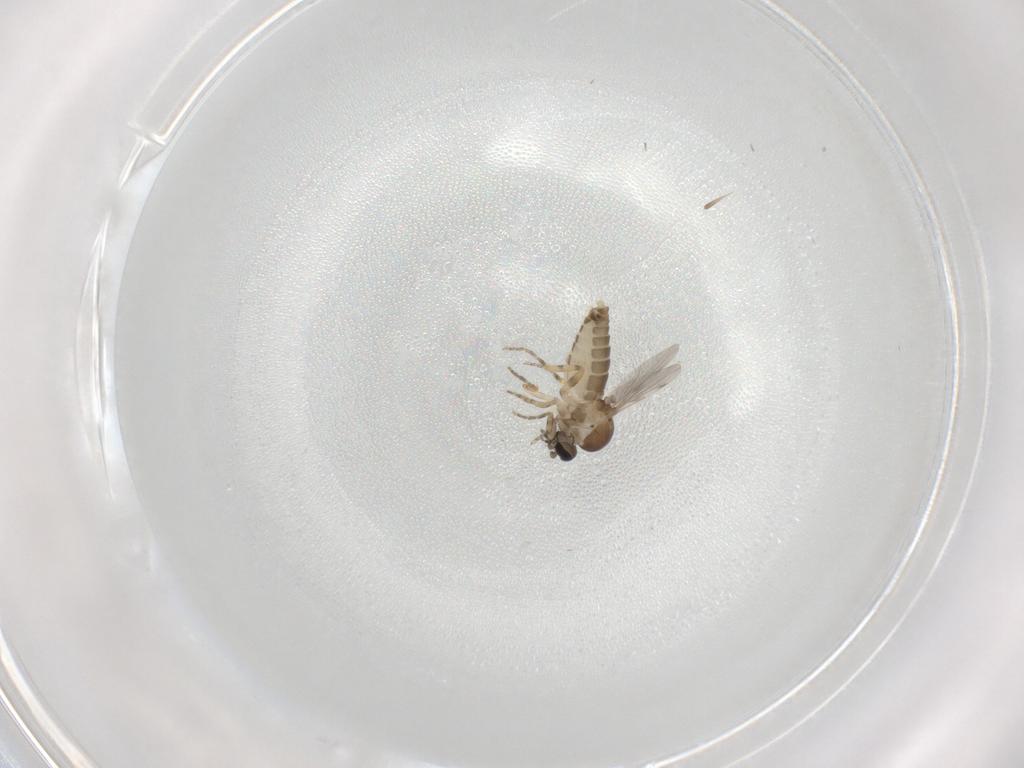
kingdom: Animalia
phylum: Arthropoda
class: Insecta
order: Diptera
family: Ceratopogonidae
